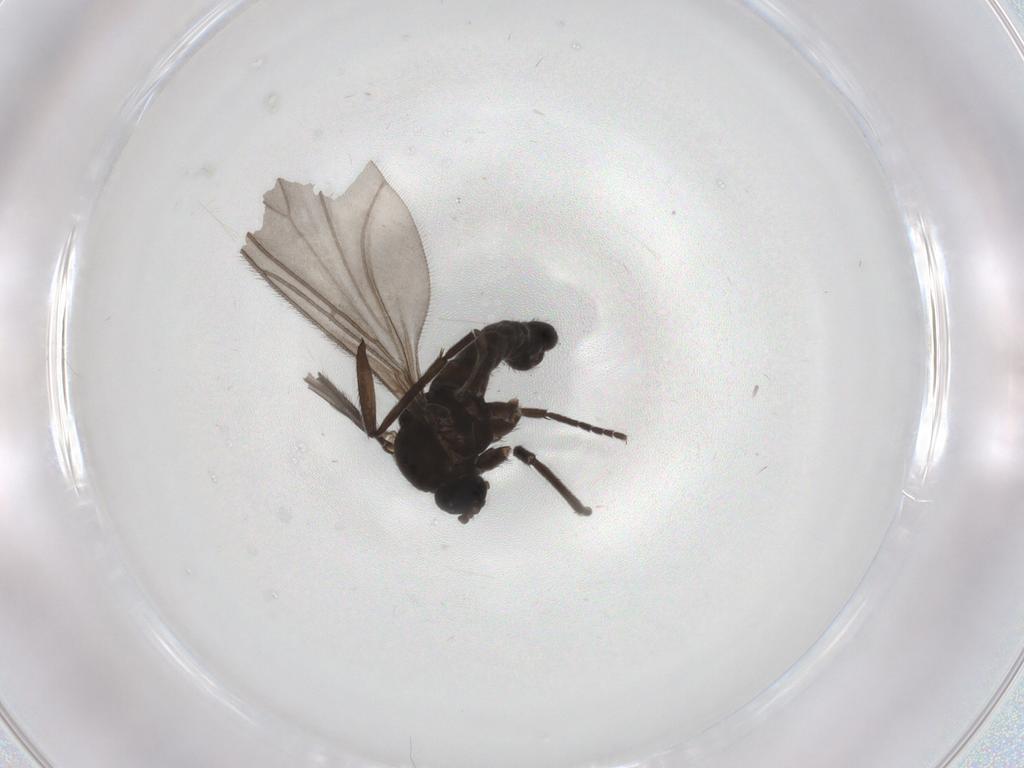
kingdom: Animalia
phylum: Arthropoda
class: Insecta
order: Diptera
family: Sciaridae
